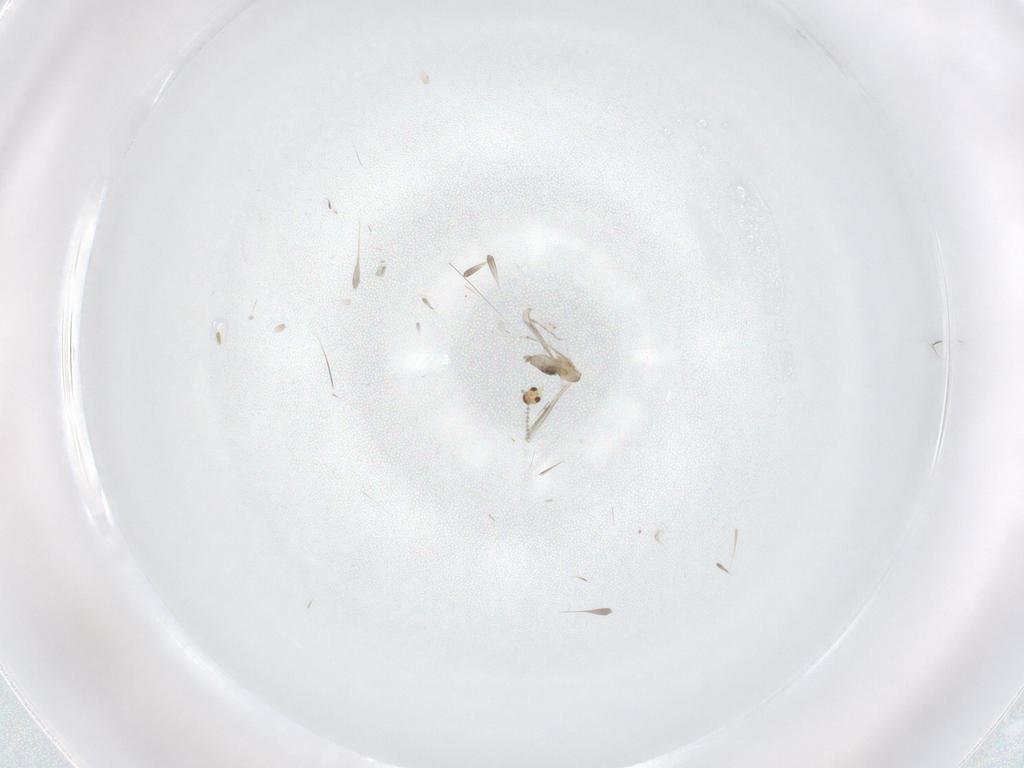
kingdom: Animalia
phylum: Arthropoda
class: Insecta
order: Diptera
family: Cecidomyiidae
